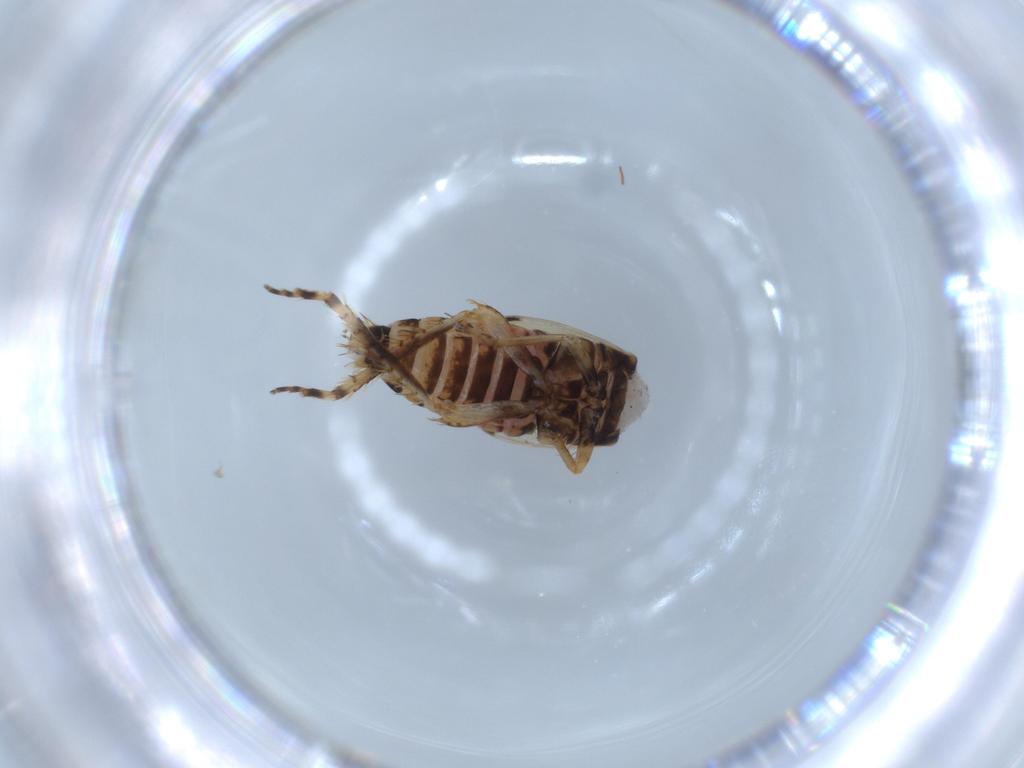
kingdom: Animalia
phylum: Arthropoda
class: Insecta
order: Hemiptera
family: Cicadellidae
